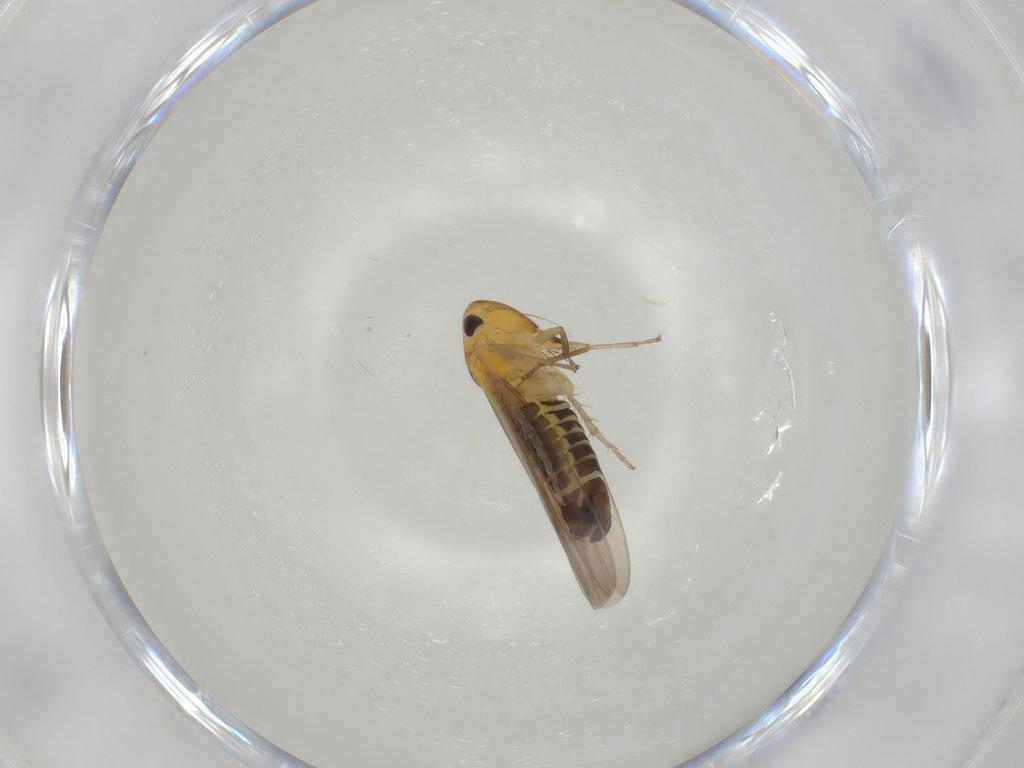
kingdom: Animalia
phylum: Arthropoda
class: Insecta
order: Hemiptera
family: Cicadellidae
